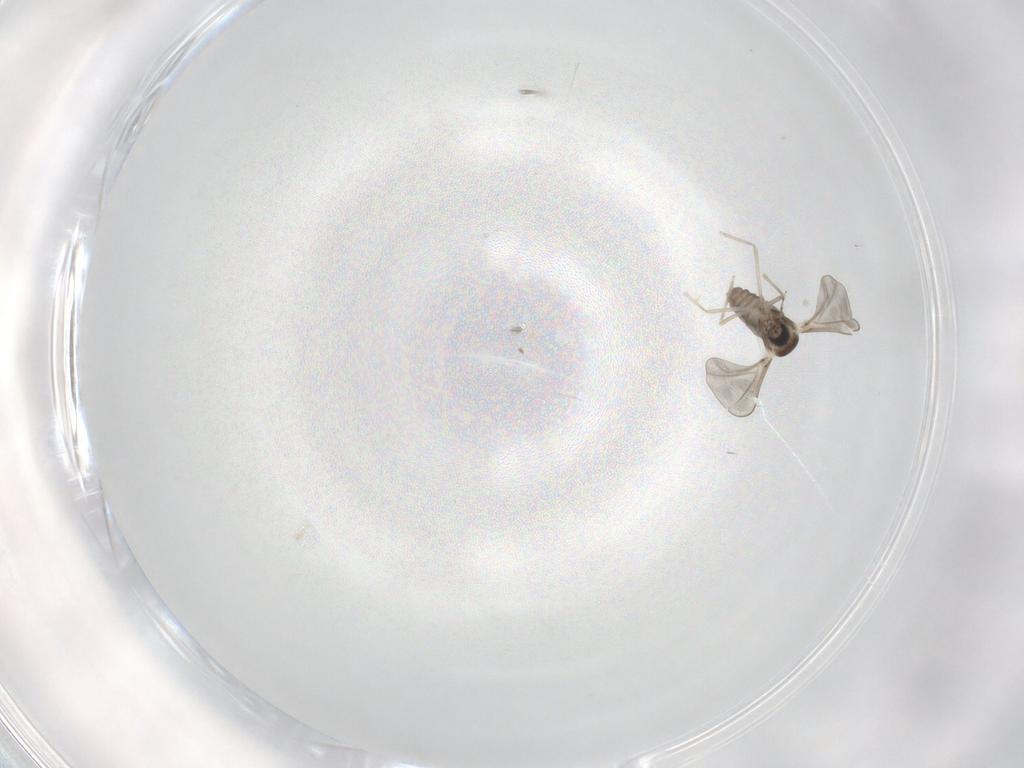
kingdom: Animalia
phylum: Arthropoda
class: Insecta
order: Diptera
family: Cecidomyiidae
